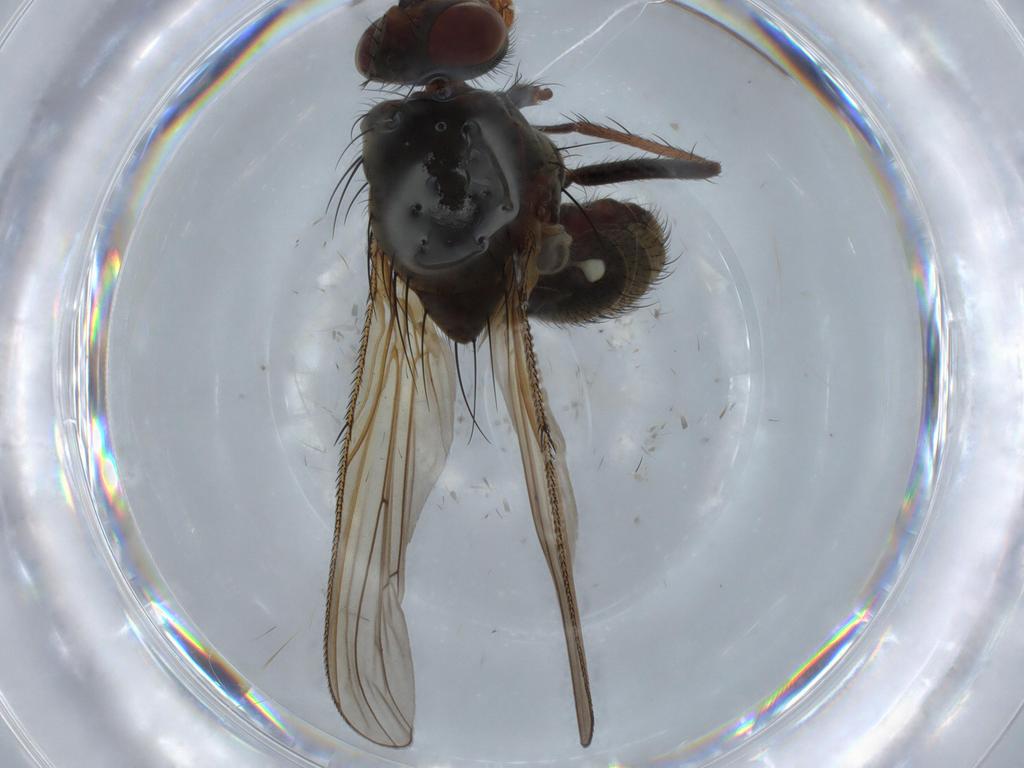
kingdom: Animalia
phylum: Arthropoda
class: Insecta
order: Diptera
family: Anthomyiidae
